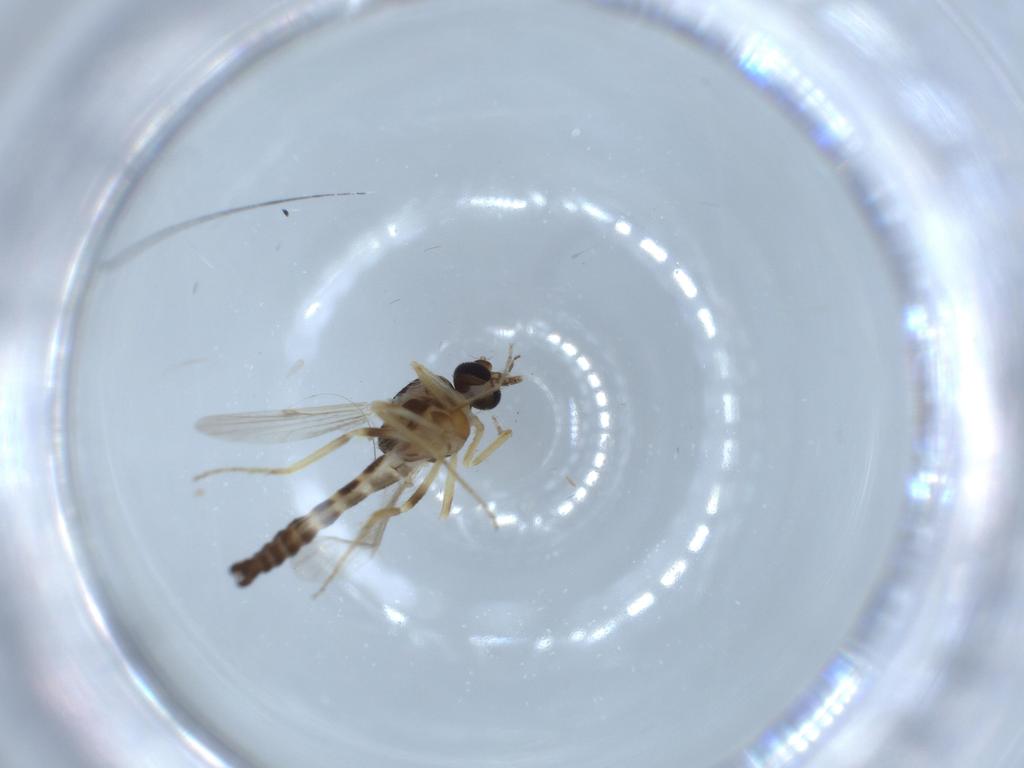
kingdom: Animalia
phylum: Arthropoda
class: Insecta
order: Diptera
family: Ceratopogonidae
